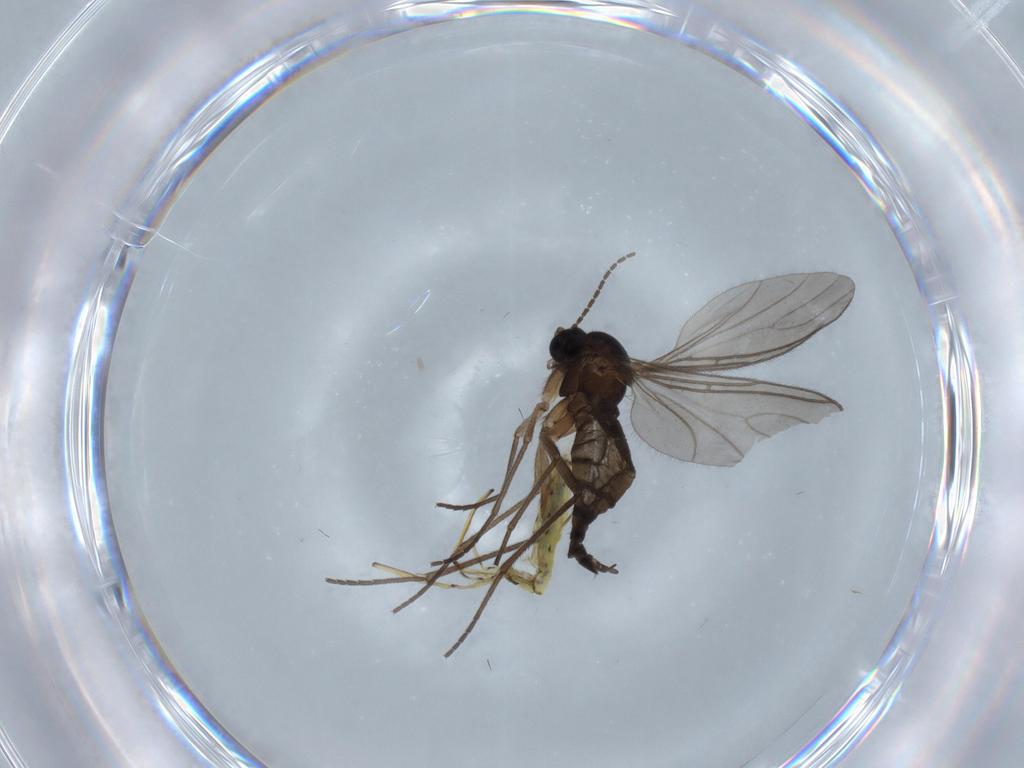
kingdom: Animalia
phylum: Arthropoda
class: Insecta
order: Diptera
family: Sciaridae
